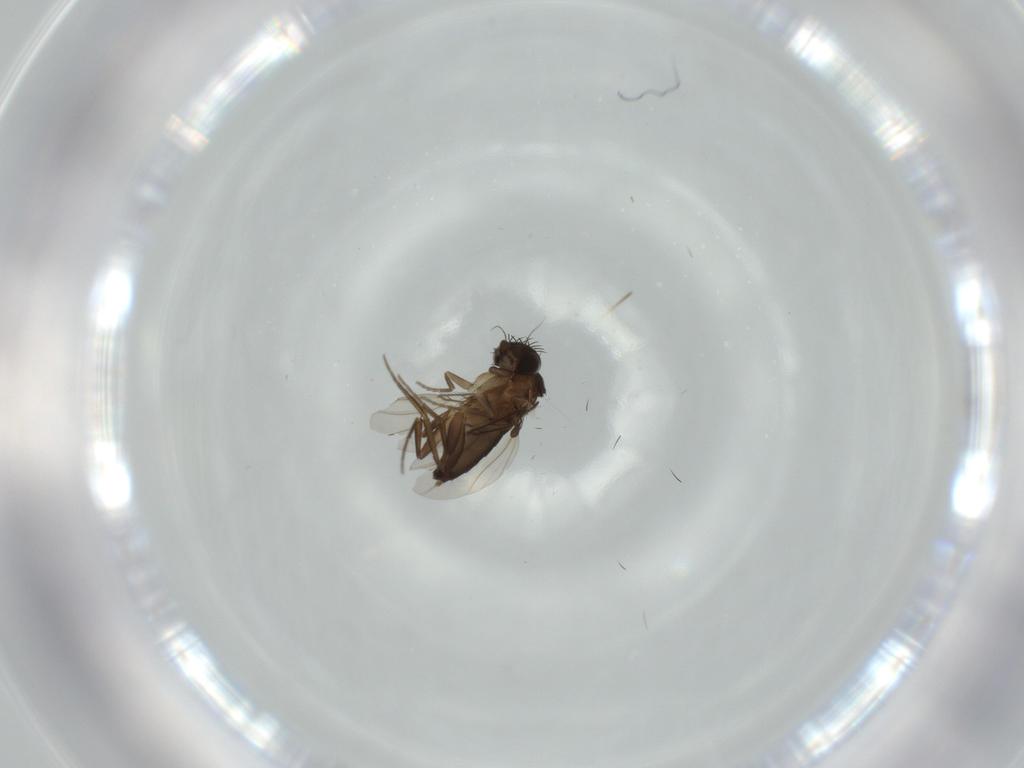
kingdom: Animalia
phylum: Arthropoda
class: Insecta
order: Diptera
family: Phoridae
